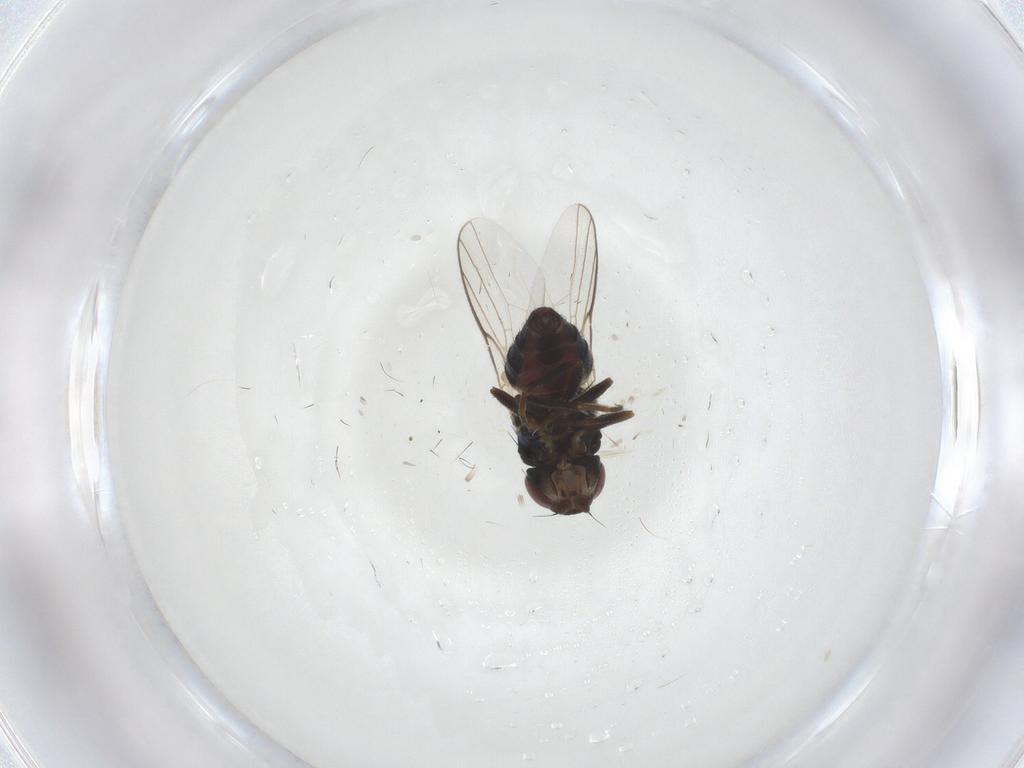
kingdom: Animalia
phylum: Arthropoda
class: Insecta
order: Diptera
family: Chloropidae
